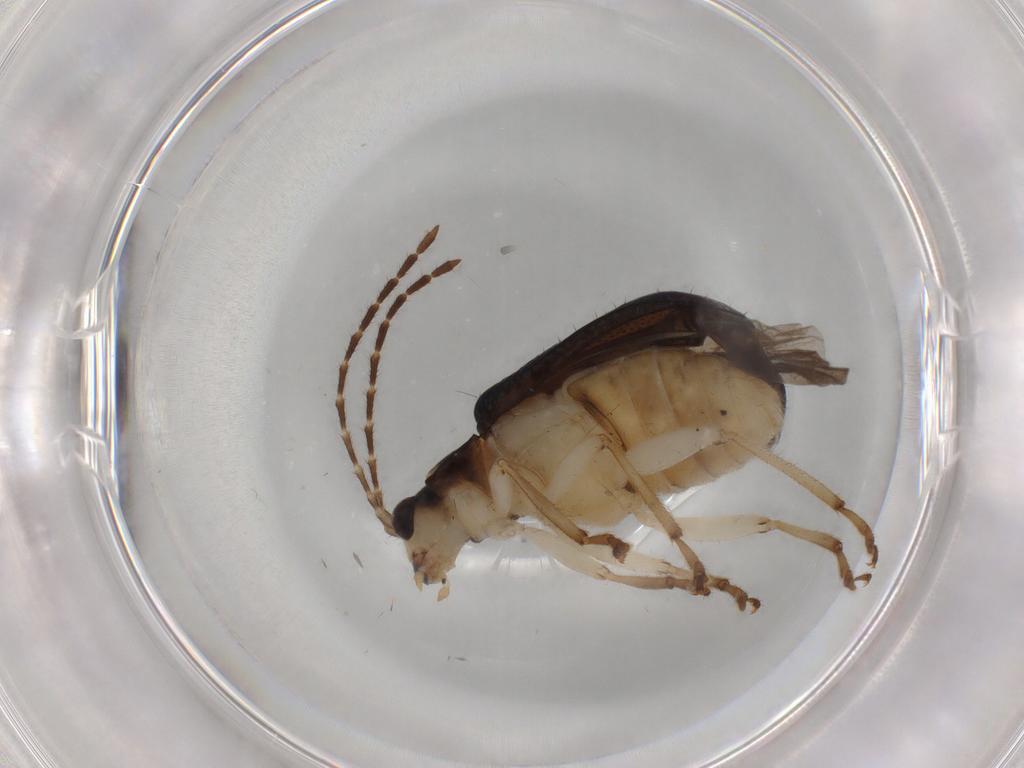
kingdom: Animalia
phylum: Arthropoda
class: Insecta
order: Coleoptera
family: Chrysomelidae
